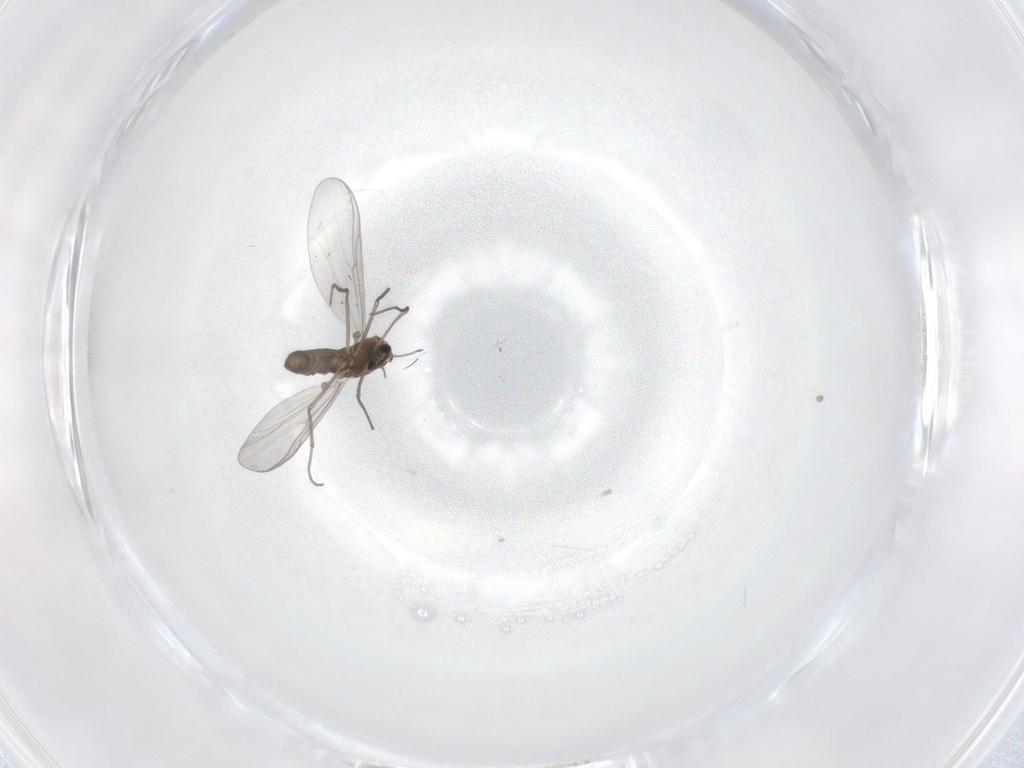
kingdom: Animalia
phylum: Arthropoda
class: Insecta
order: Diptera
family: Chironomidae
